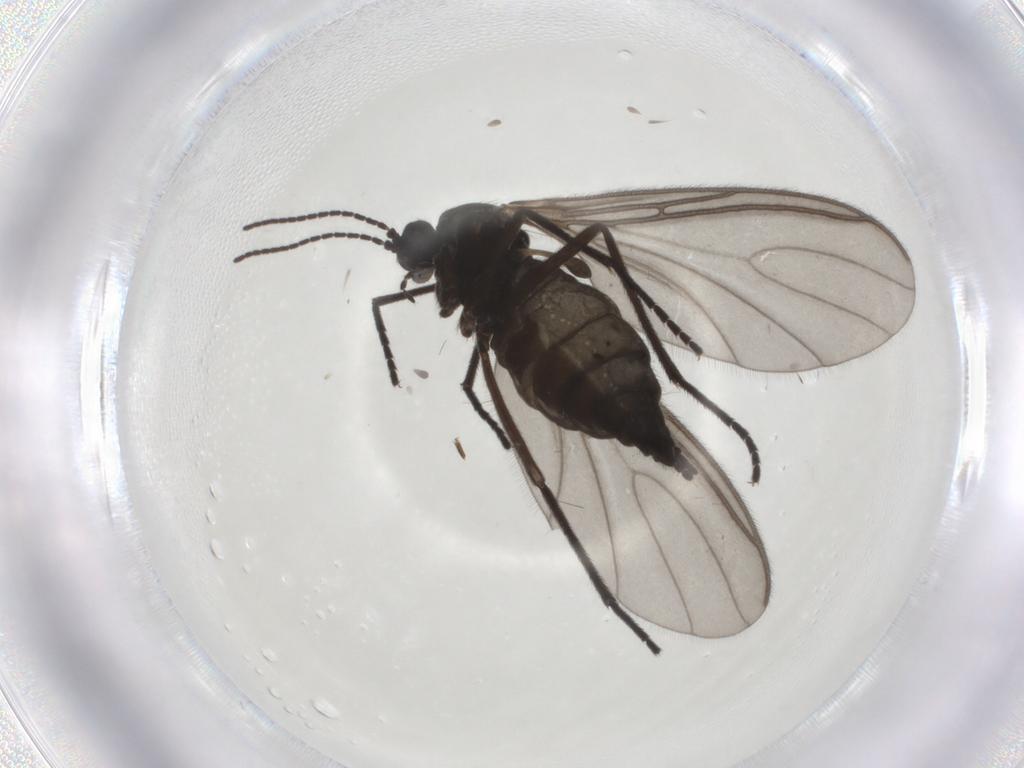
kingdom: Animalia
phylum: Arthropoda
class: Insecta
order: Diptera
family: Sciaridae
